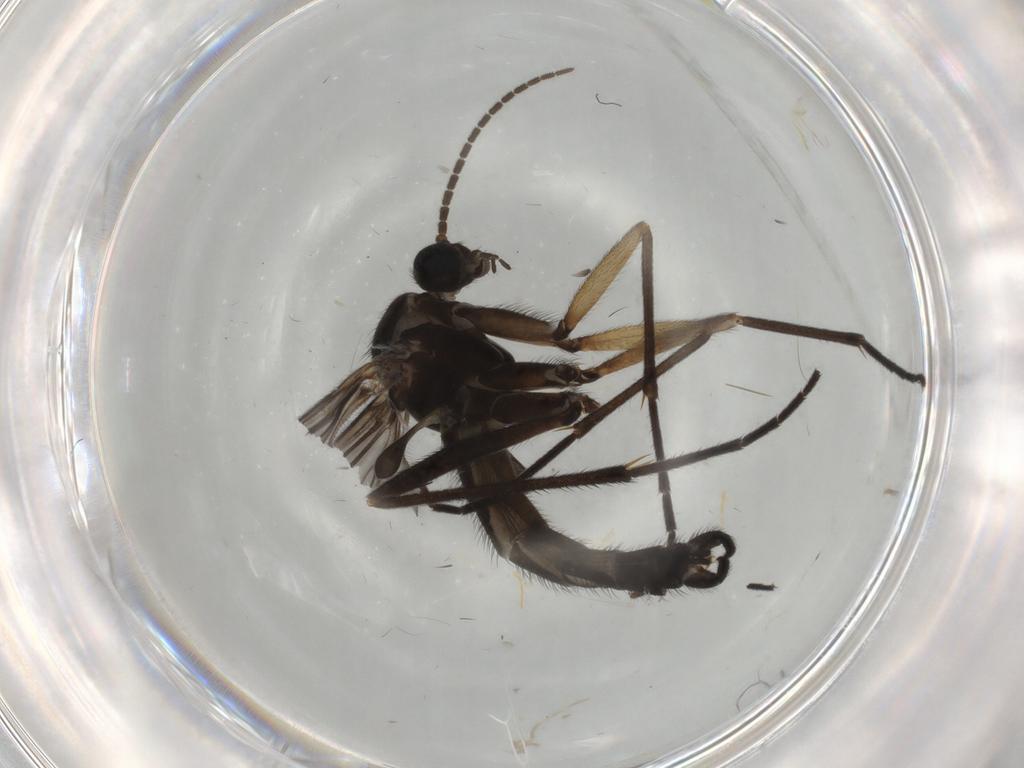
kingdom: Animalia
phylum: Arthropoda
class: Insecta
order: Diptera
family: Sciaridae
